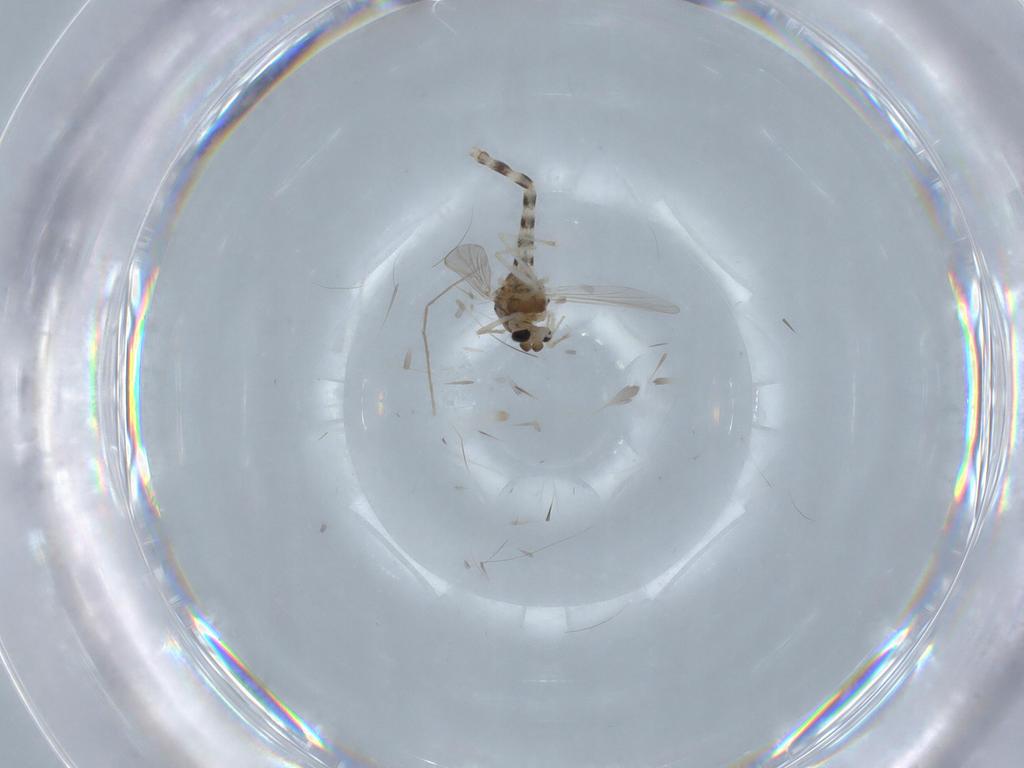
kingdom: Animalia
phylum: Arthropoda
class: Insecta
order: Diptera
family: Chironomidae
